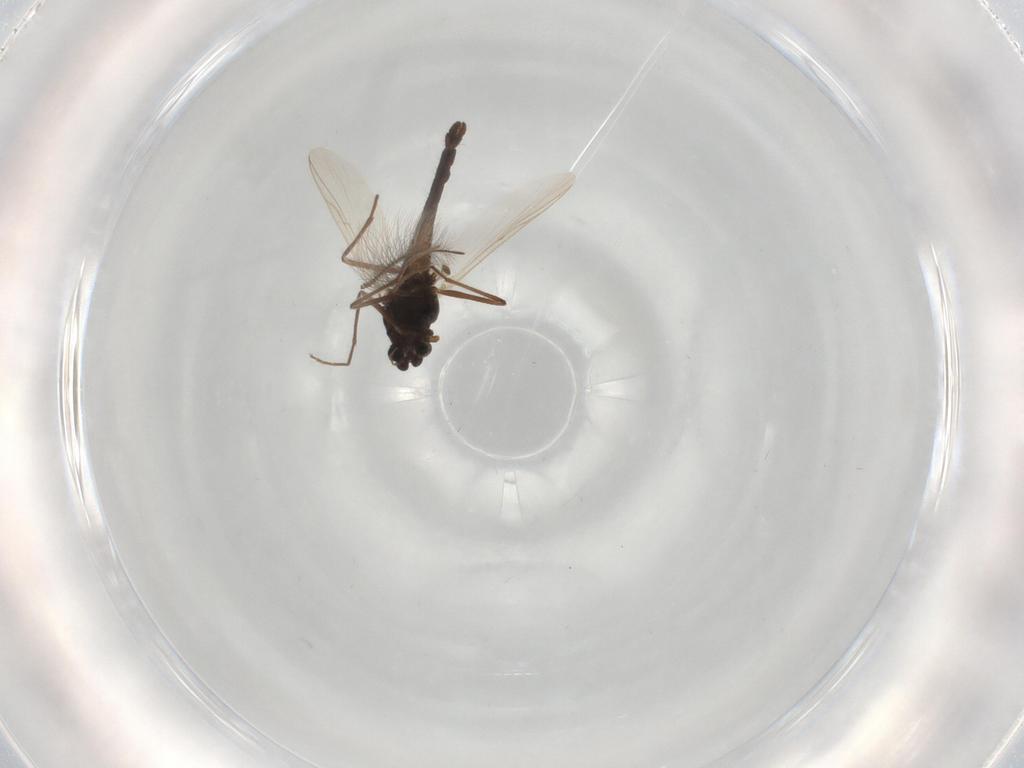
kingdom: Animalia
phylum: Arthropoda
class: Insecta
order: Diptera
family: Chironomidae
